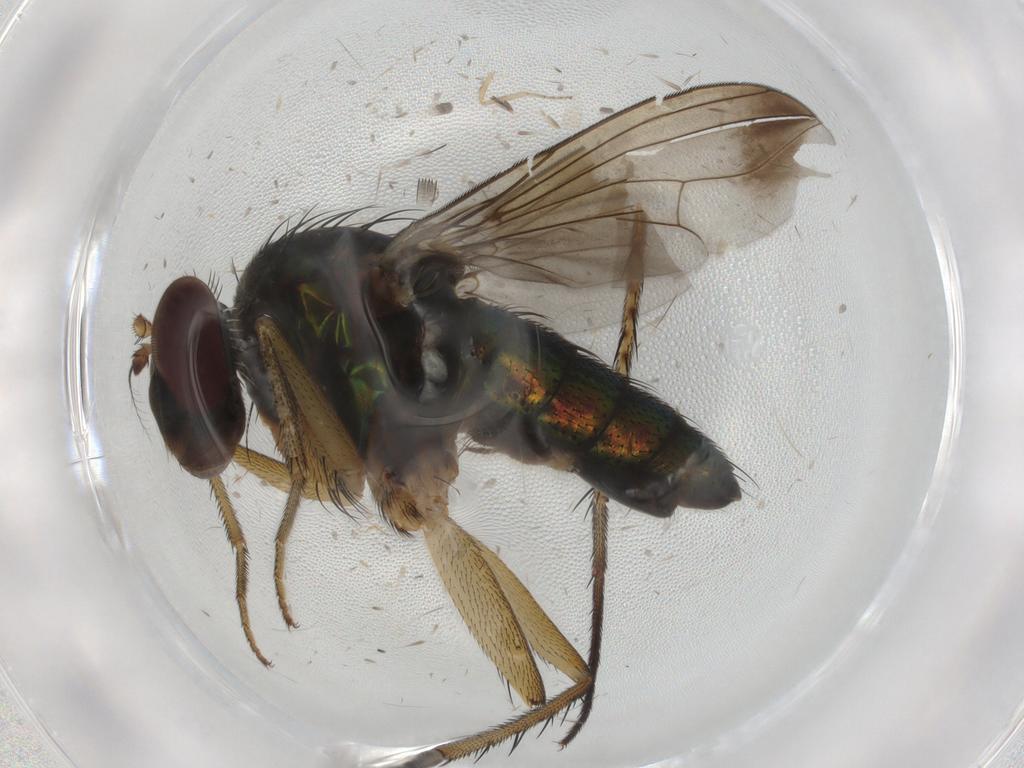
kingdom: Animalia
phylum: Arthropoda
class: Insecta
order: Diptera
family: Dolichopodidae
